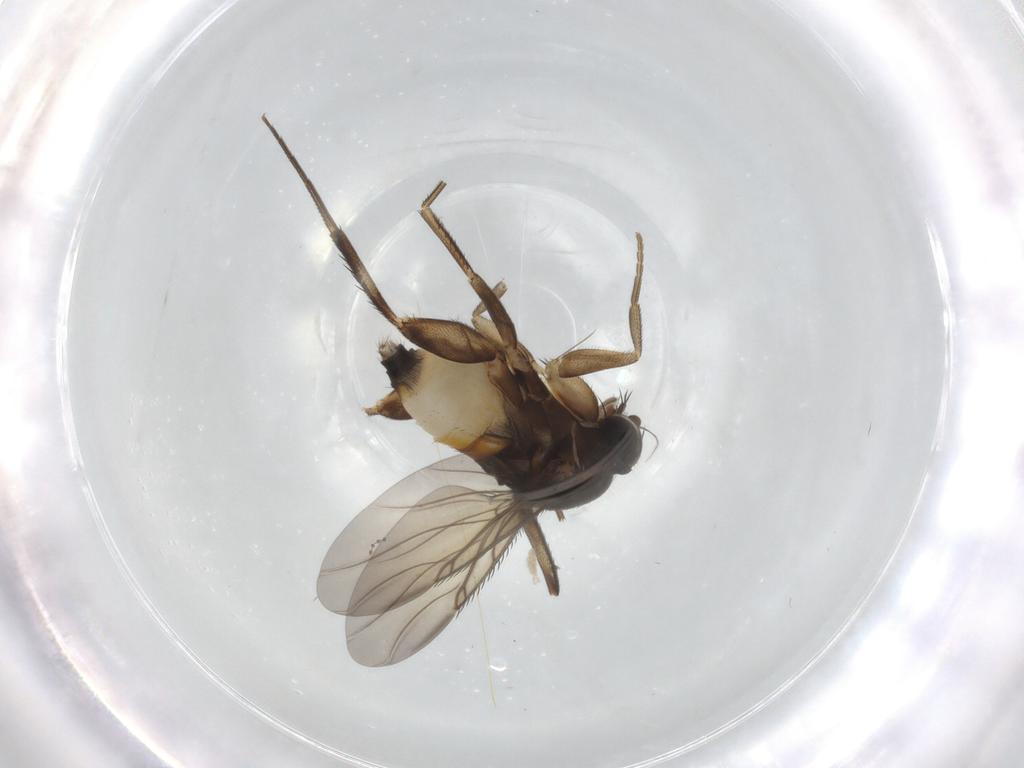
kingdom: Animalia
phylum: Arthropoda
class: Insecta
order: Diptera
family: Phoridae
